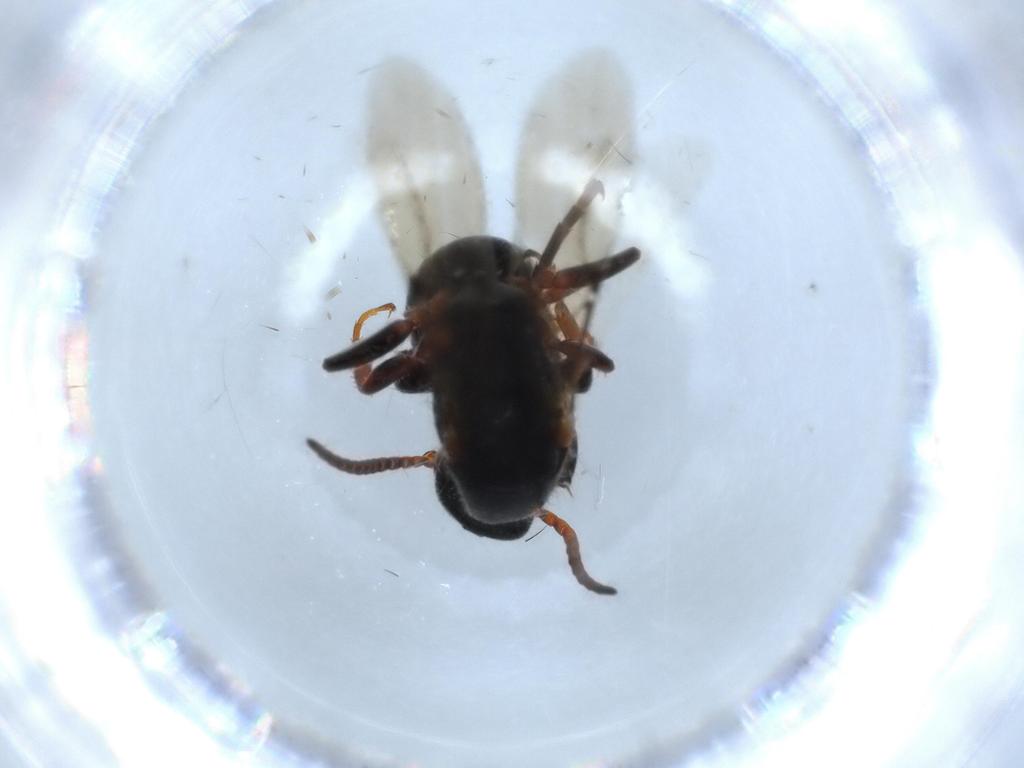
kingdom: Animalia
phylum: Arthropoda
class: Insecta
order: Hymenoptera
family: Bethylidae
